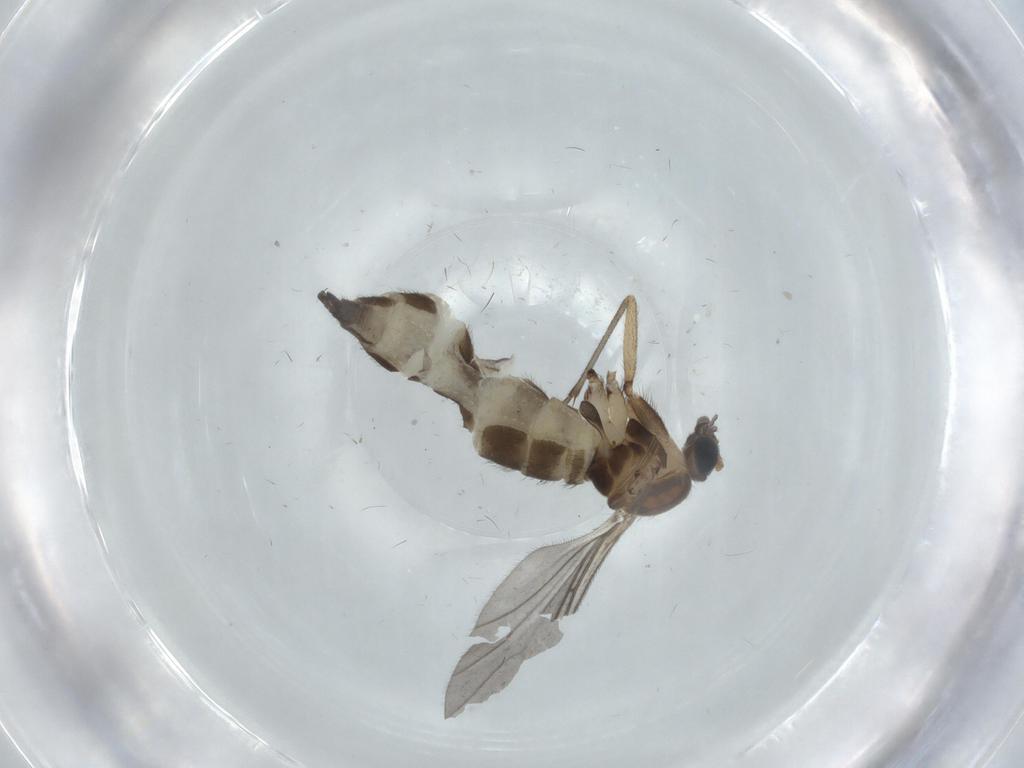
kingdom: Animalia
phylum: Arthropoda
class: Insecta
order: Diptera
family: Sciaridae
